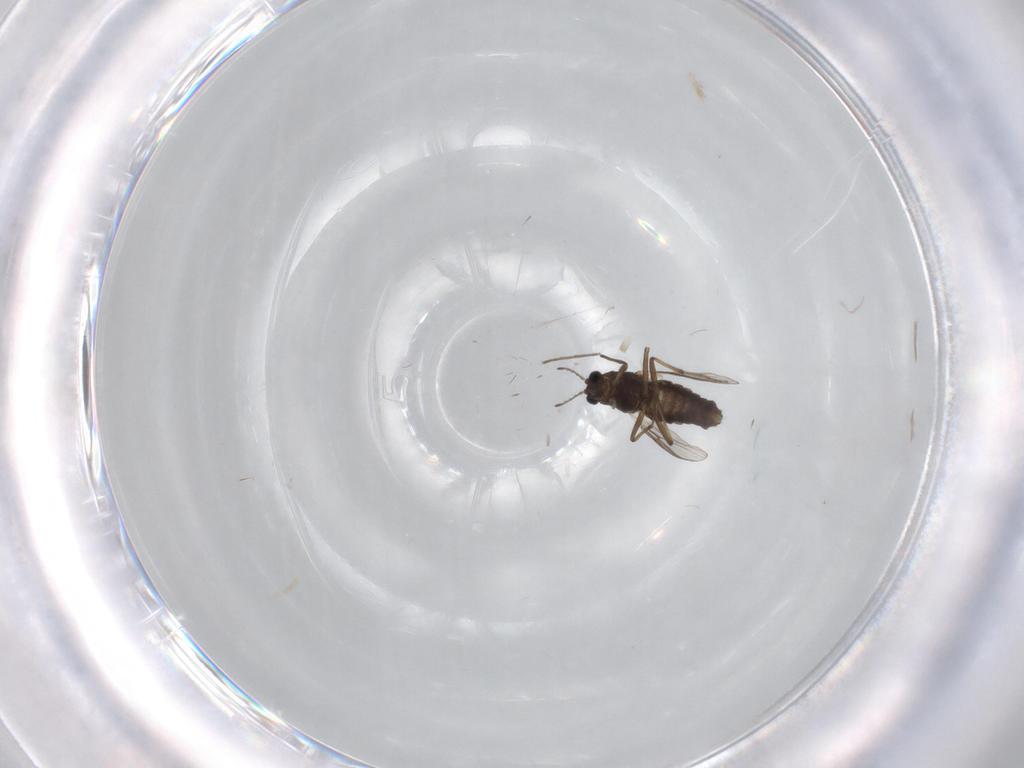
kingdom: Animalia
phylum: Arthropoda
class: Insecta
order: Diptera
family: Chironomidae
